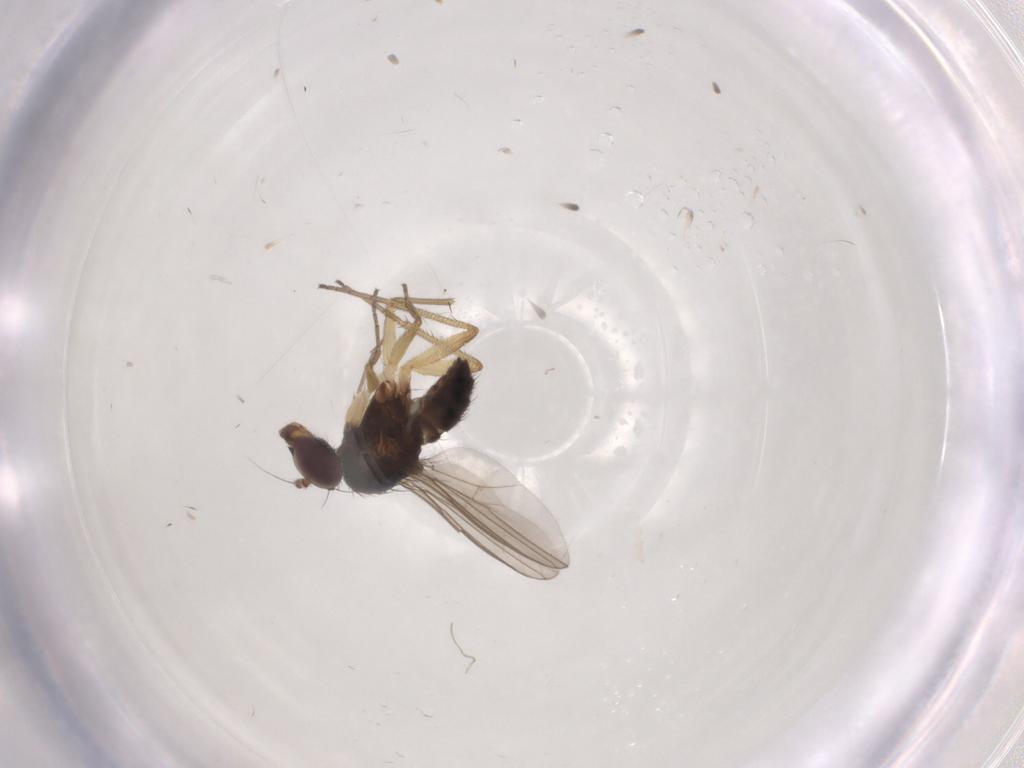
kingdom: Animalia
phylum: Arthropoda
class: Insecta
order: Diptera
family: Dolichopodidae
